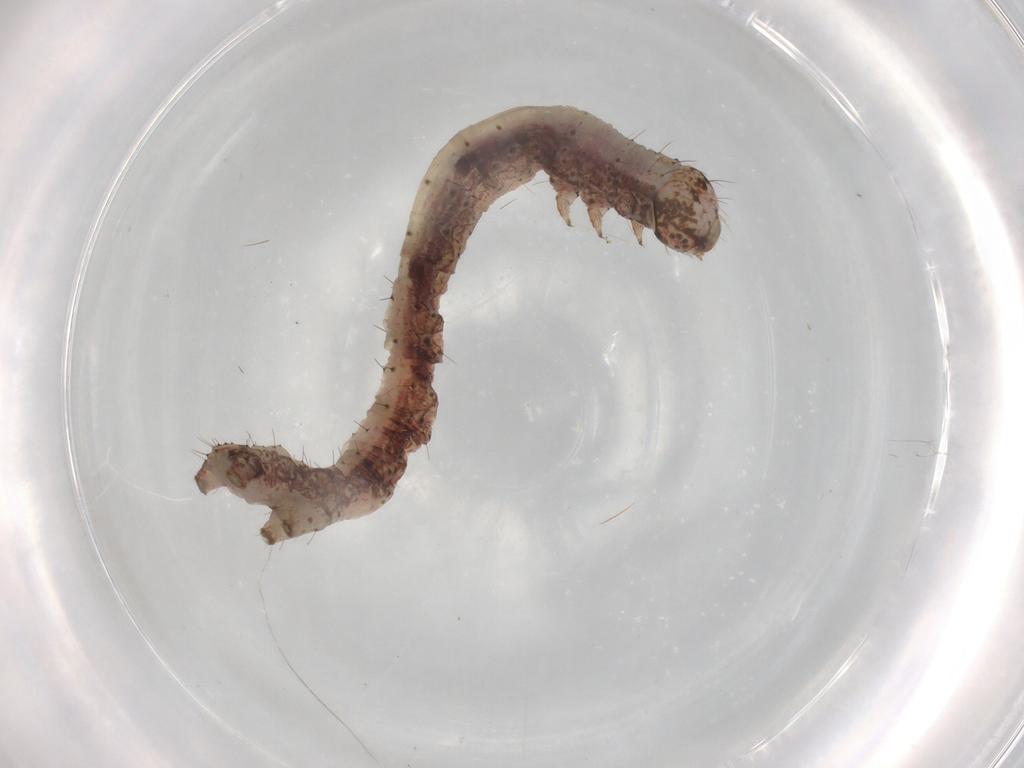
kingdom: Animalia
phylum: Arthropoda
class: Insecta
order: Lepidoptera
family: Geometridae
